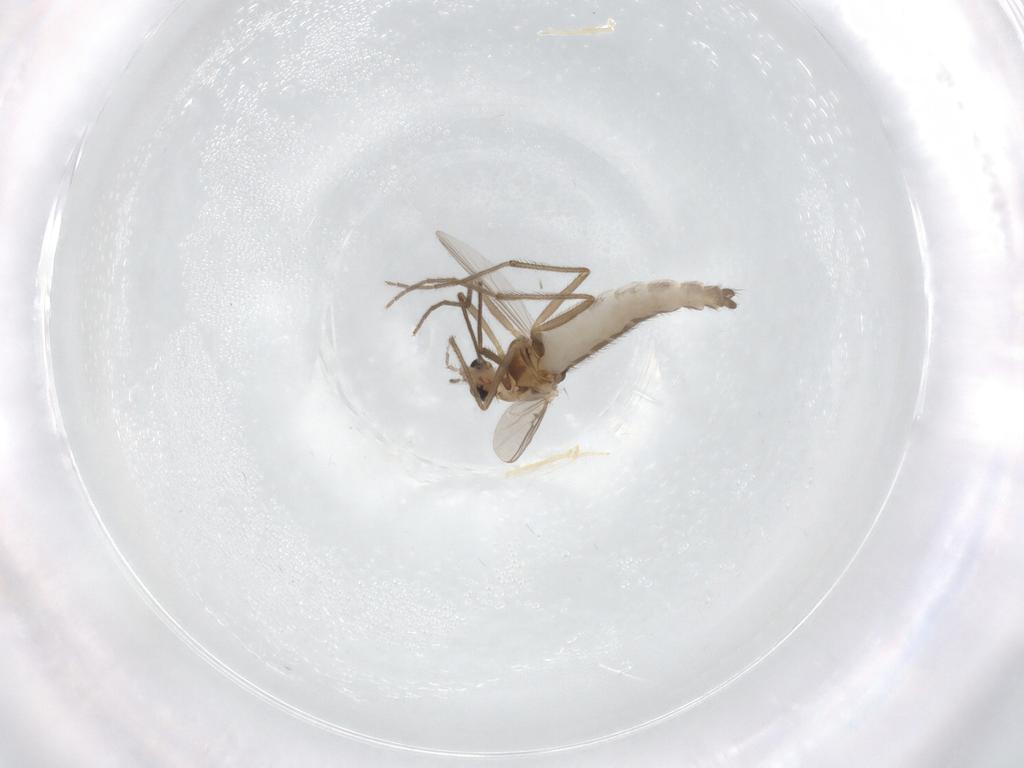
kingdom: Animalia
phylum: Arthropoda
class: Insecta
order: Diptera
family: Chironomidae
